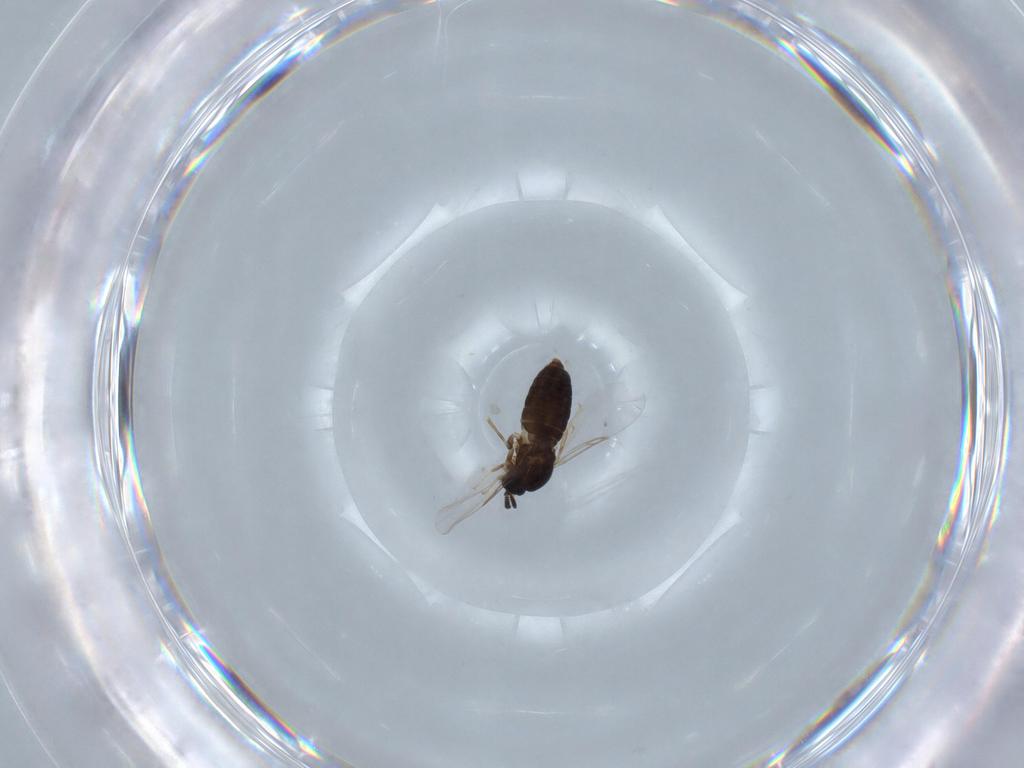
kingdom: Animalia
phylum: Arthropoda
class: Insecta
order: Diptera
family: Scatopsidae
